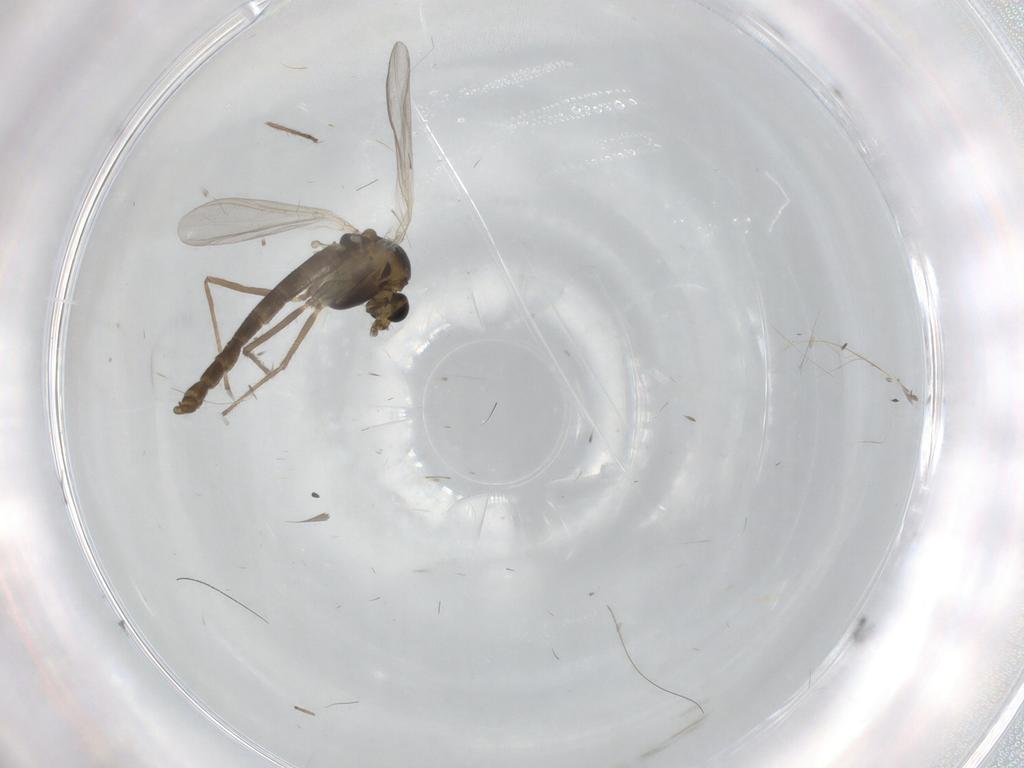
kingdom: Animalia
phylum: Arthropoda
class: Insecta
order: Diptera
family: Chironomidae
